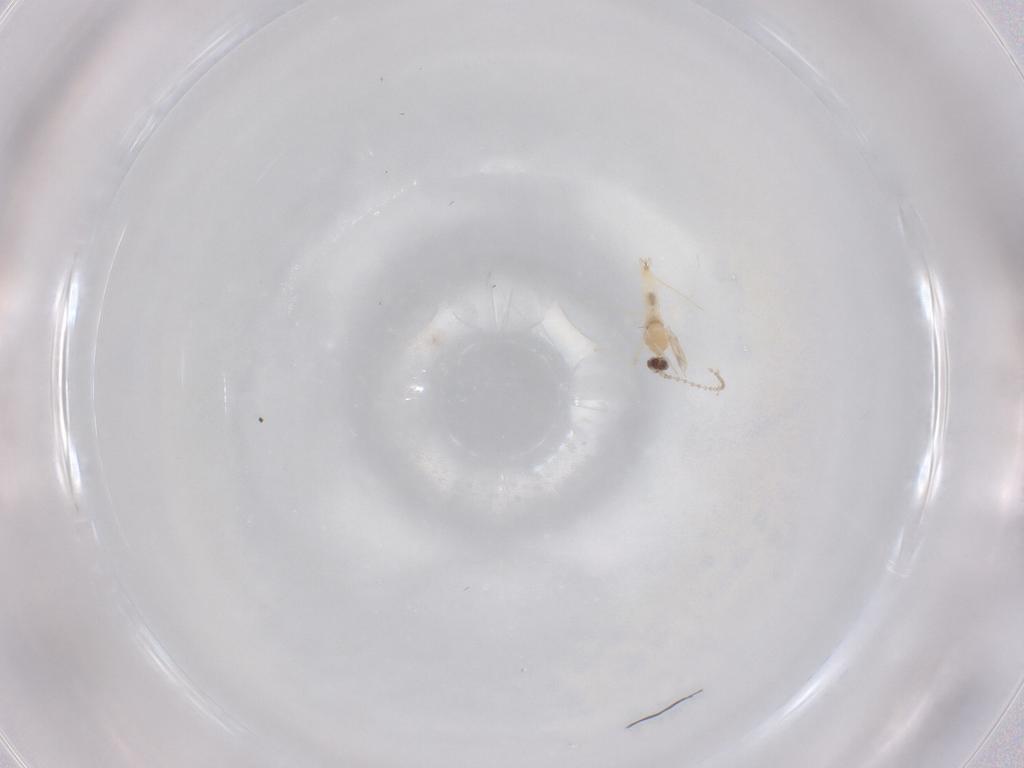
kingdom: Animalia
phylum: Arthropoda
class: Insecta
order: Diptera
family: Cecidomyiidae
